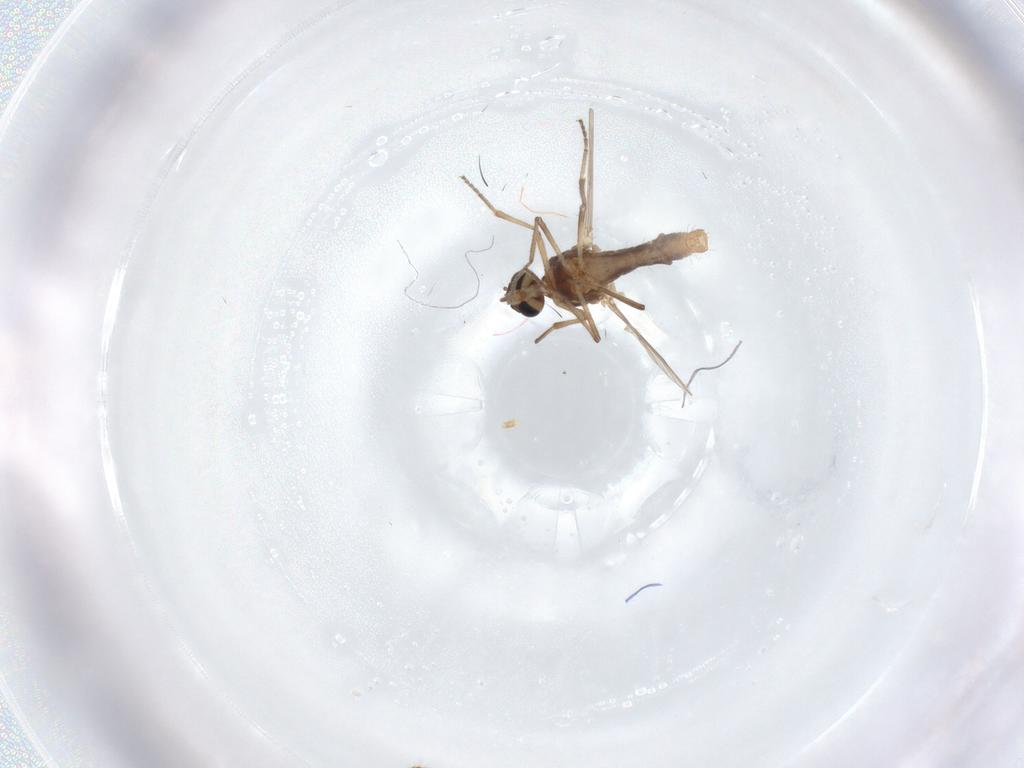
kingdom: Animalia
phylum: Arthropoda
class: Insecta
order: Diptera
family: Ceratopogonidae
